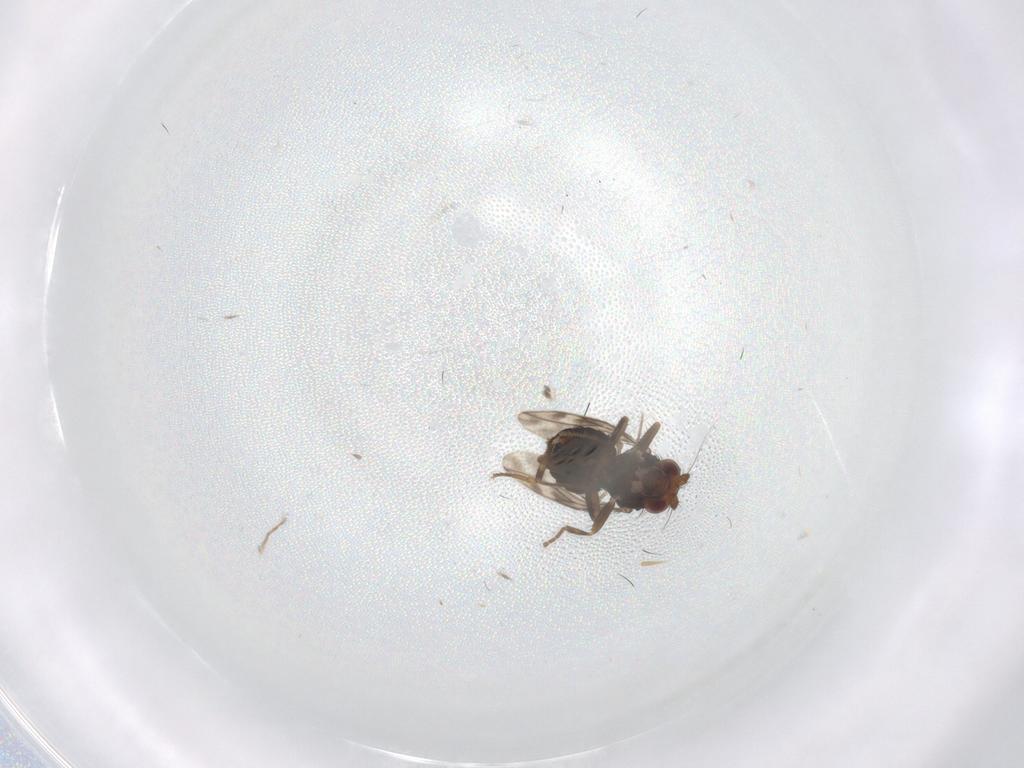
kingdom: Animalia
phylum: Arthropoda
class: Insecta
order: Diptera
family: Sphaeroceridae
